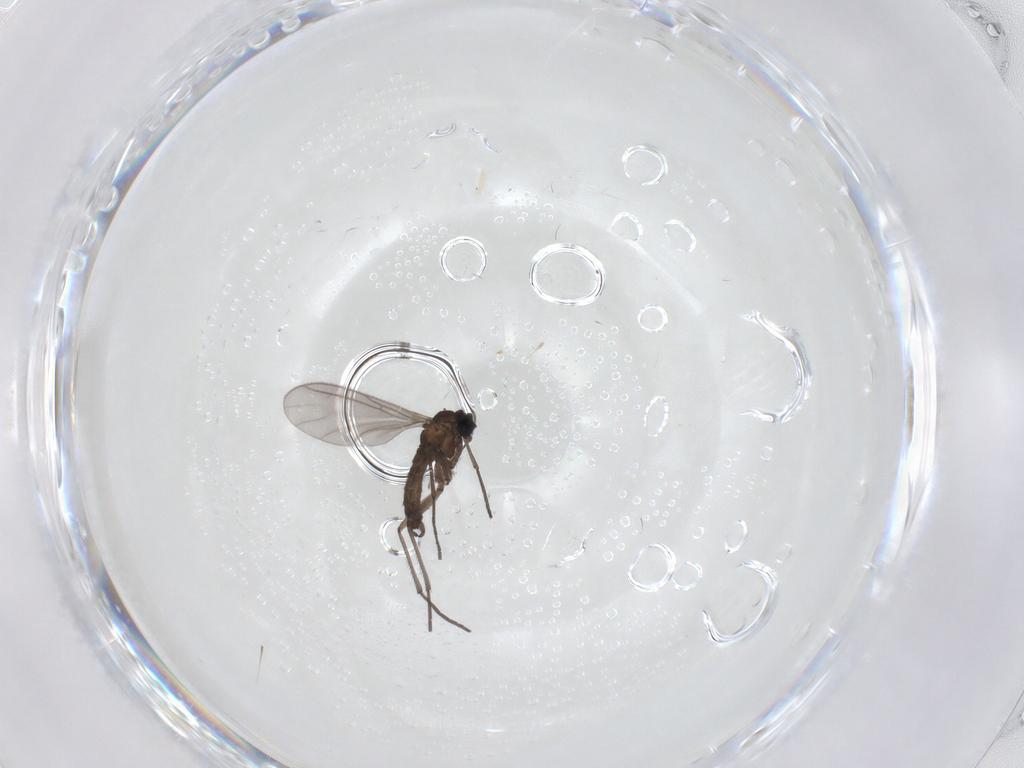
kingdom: Animalia
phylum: Arthropoda
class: Insecta
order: Diptera
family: Sciaridae
